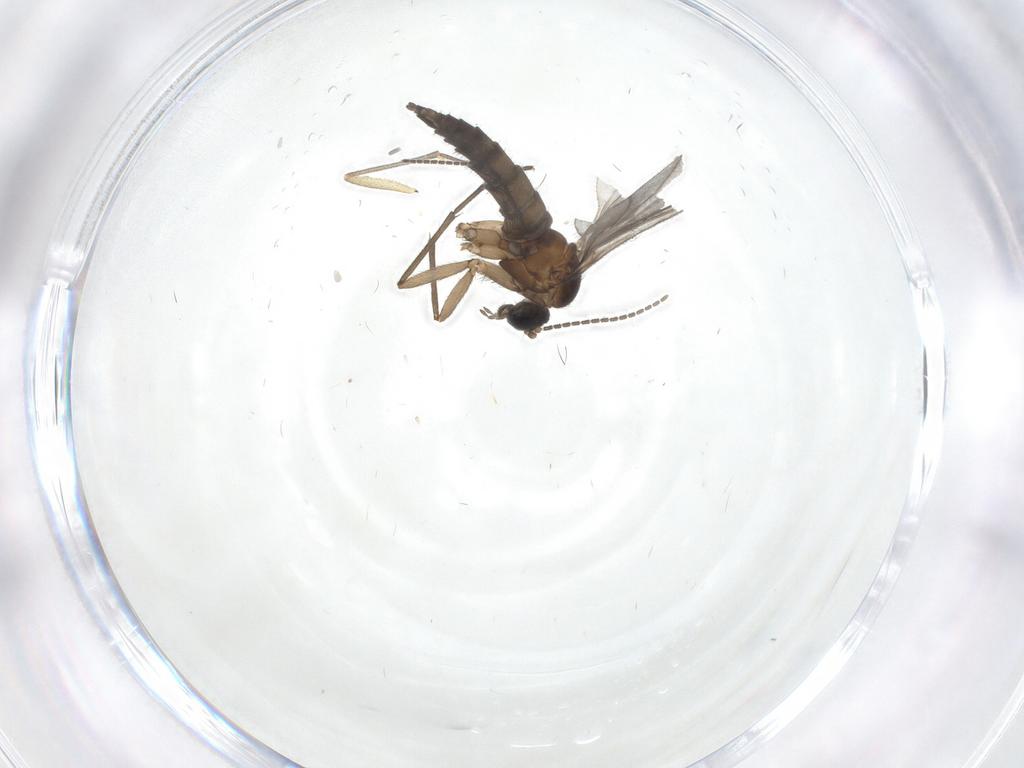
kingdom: Animalia
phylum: Arthropoda
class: Insecta
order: Diptera
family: Sciaridae
